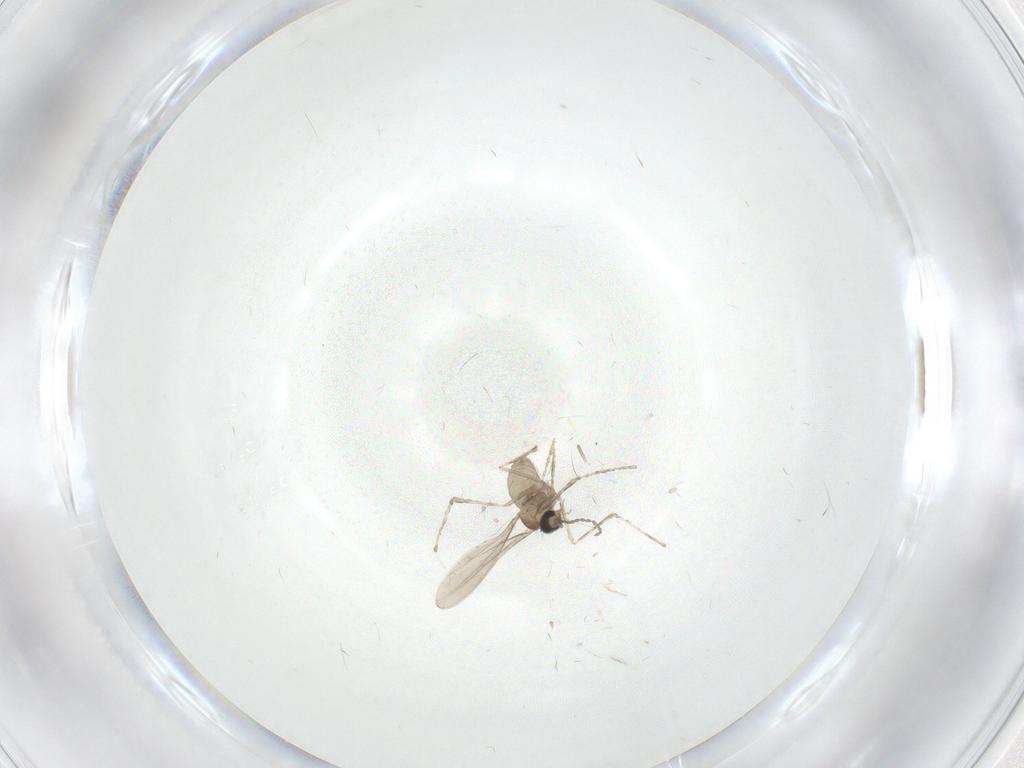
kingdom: Animalia
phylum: Arthropoda
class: Insecta
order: Diptera
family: Cecidomyiidae
